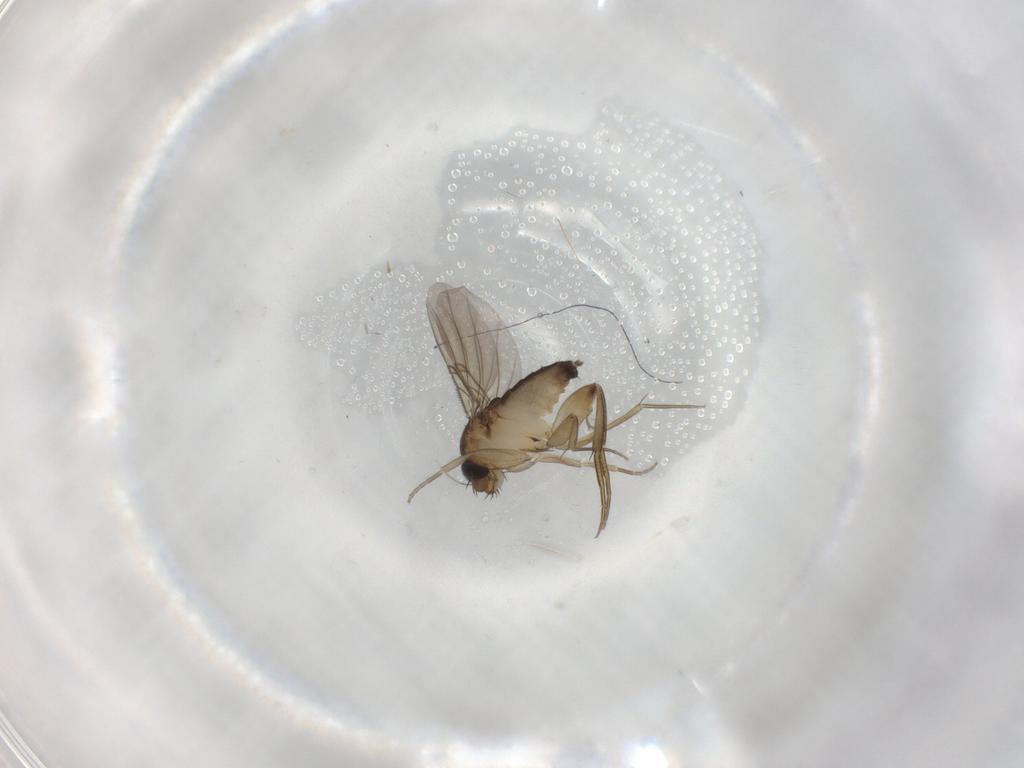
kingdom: Animalia
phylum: Arthropoda
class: Insecta
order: Diptera
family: Phoridae
